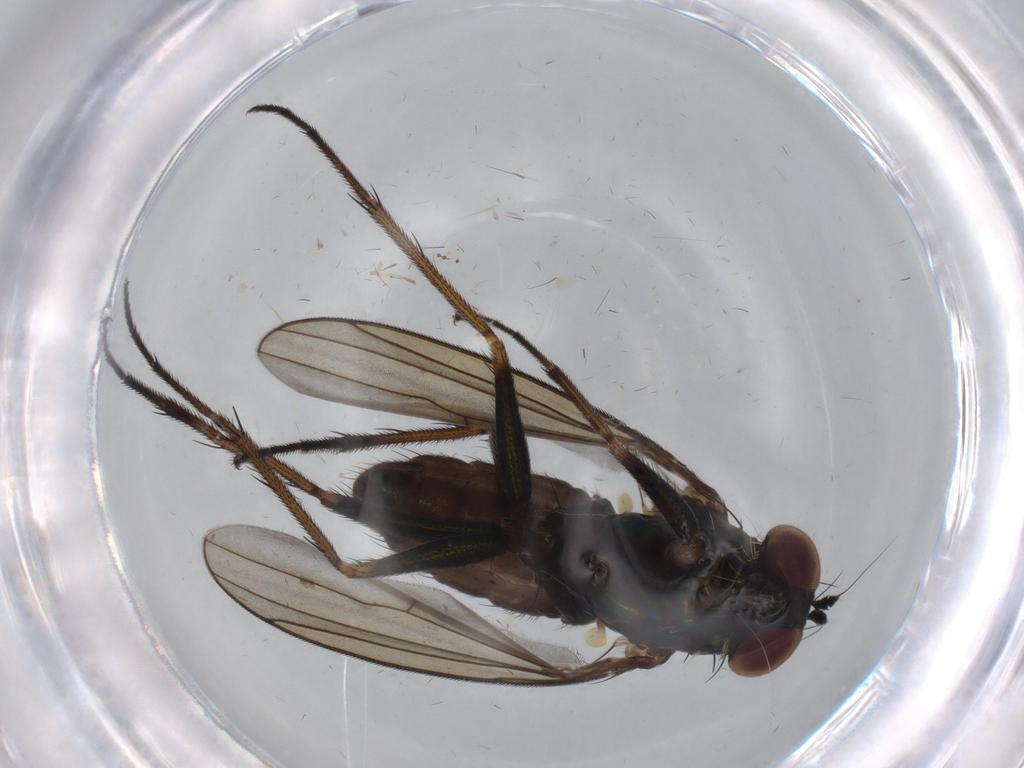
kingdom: Animalia
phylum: Arthropoda
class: Insecta
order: Diptera
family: Dolichopodidae
